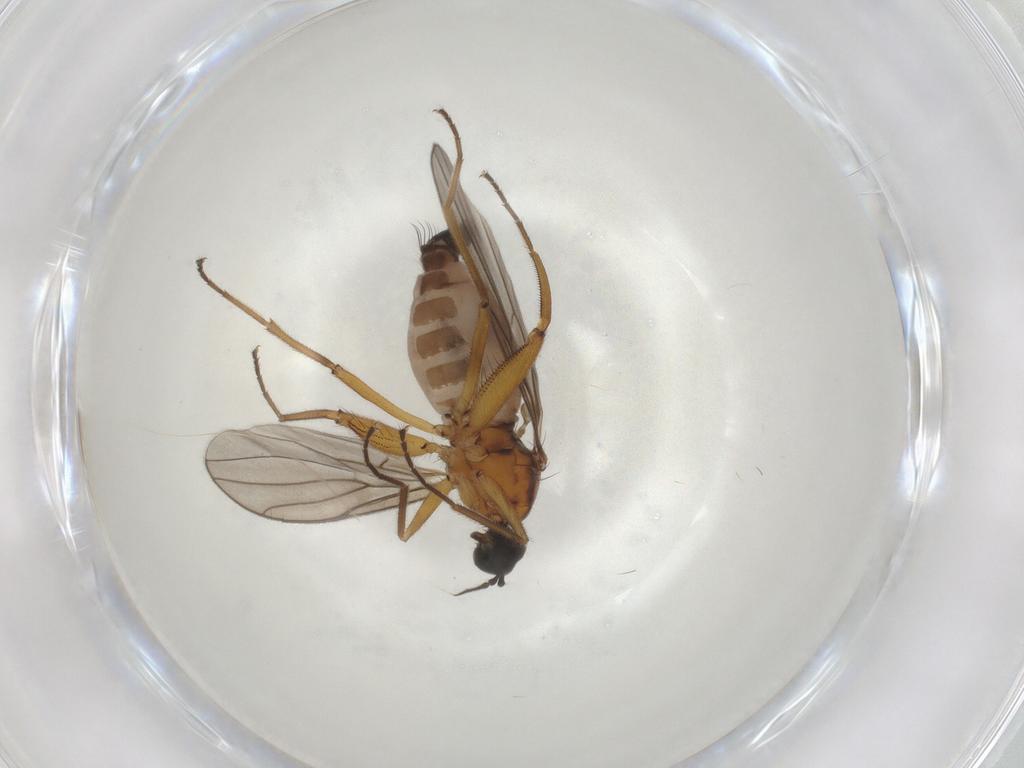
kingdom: Animalia
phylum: Arthropoda
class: Insecta
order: Diptera
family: Hybotidae
